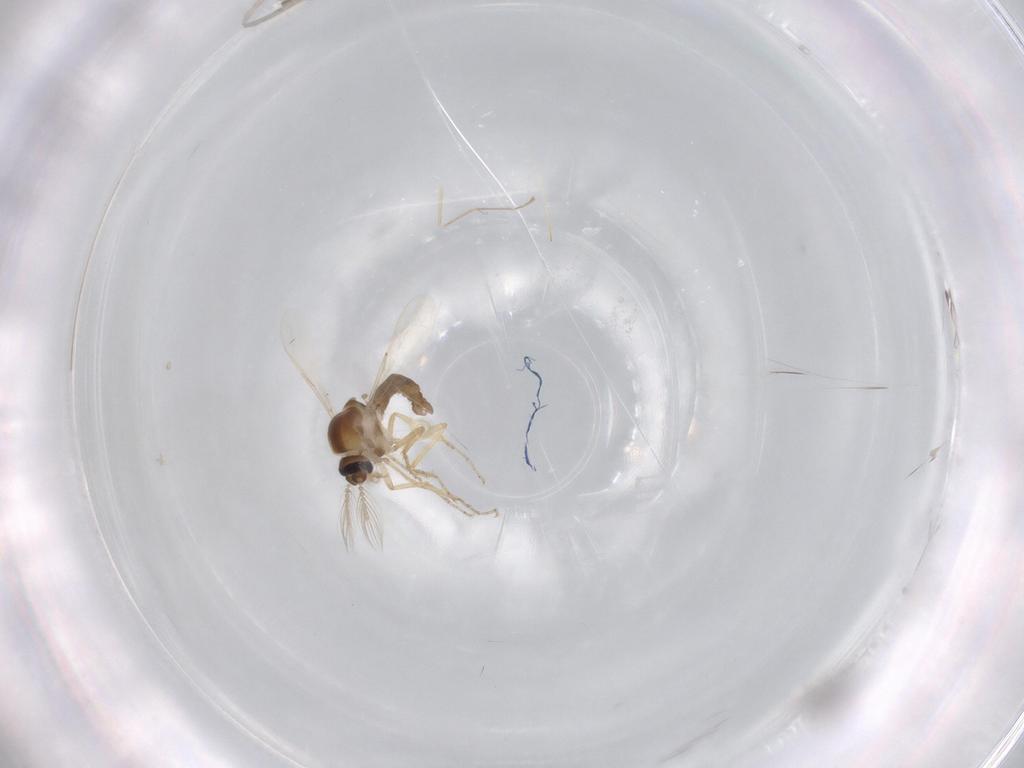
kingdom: Animalia
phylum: Arthropoda
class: Insecta
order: Diptera
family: Ceratopogonidae
